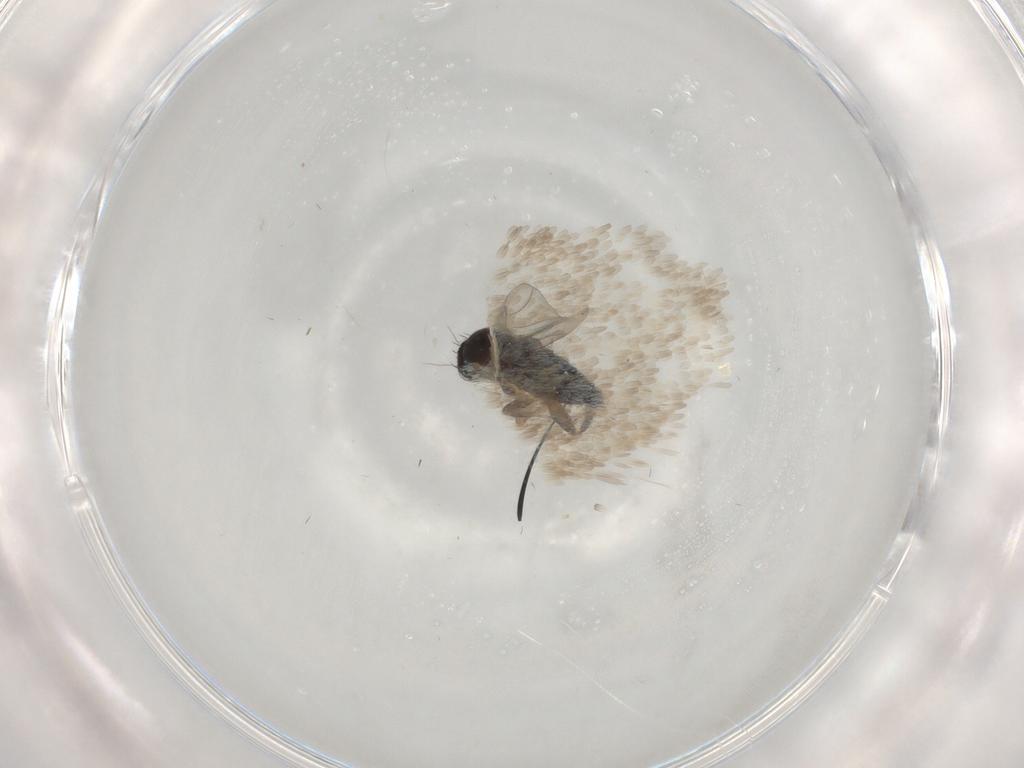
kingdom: Animalia
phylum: Arthropoda
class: Insecta
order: Diptera
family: Phoridae
